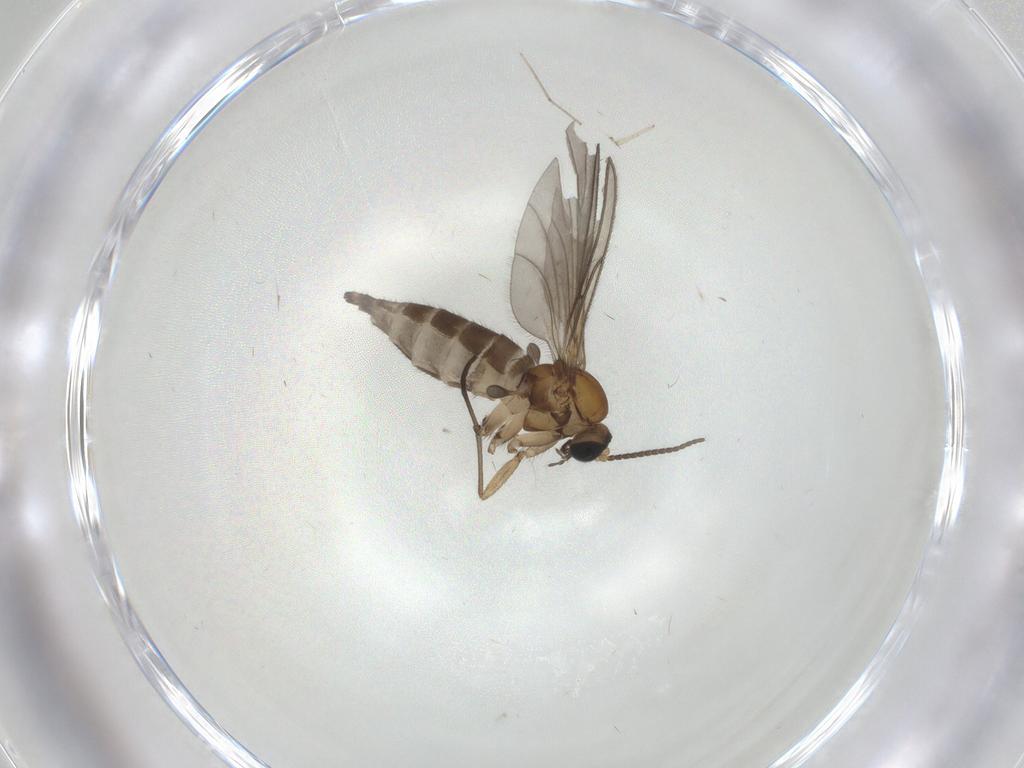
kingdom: Animalia
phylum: Arthropoda
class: Insecta
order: Diptera
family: Sciaridae
